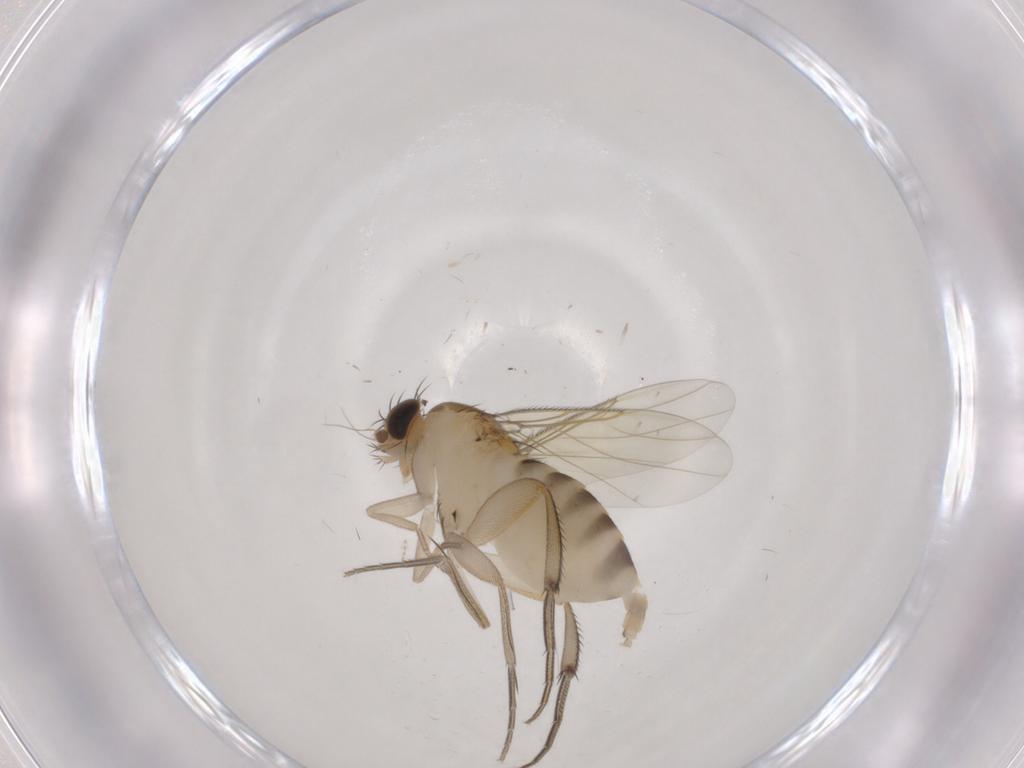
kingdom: Animalia
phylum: Arthropoda
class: Insecta
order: Diptera
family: Phoridae
